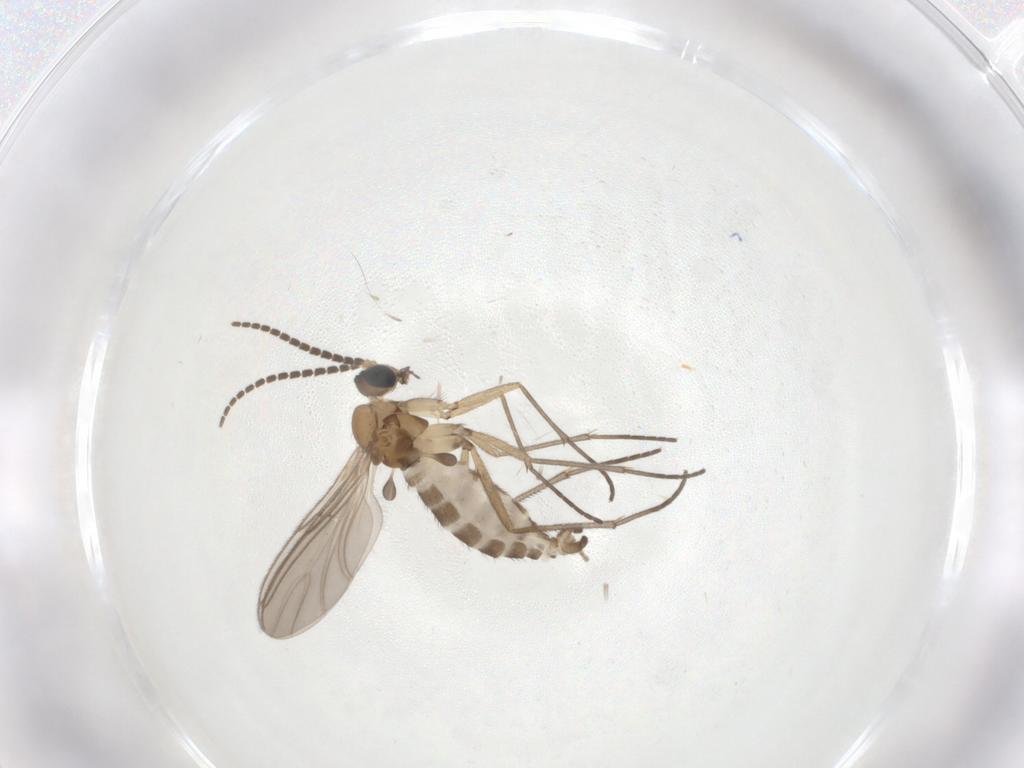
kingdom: Animalia
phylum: Arthropoda
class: Insecta
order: Diptera
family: Sciaridae
